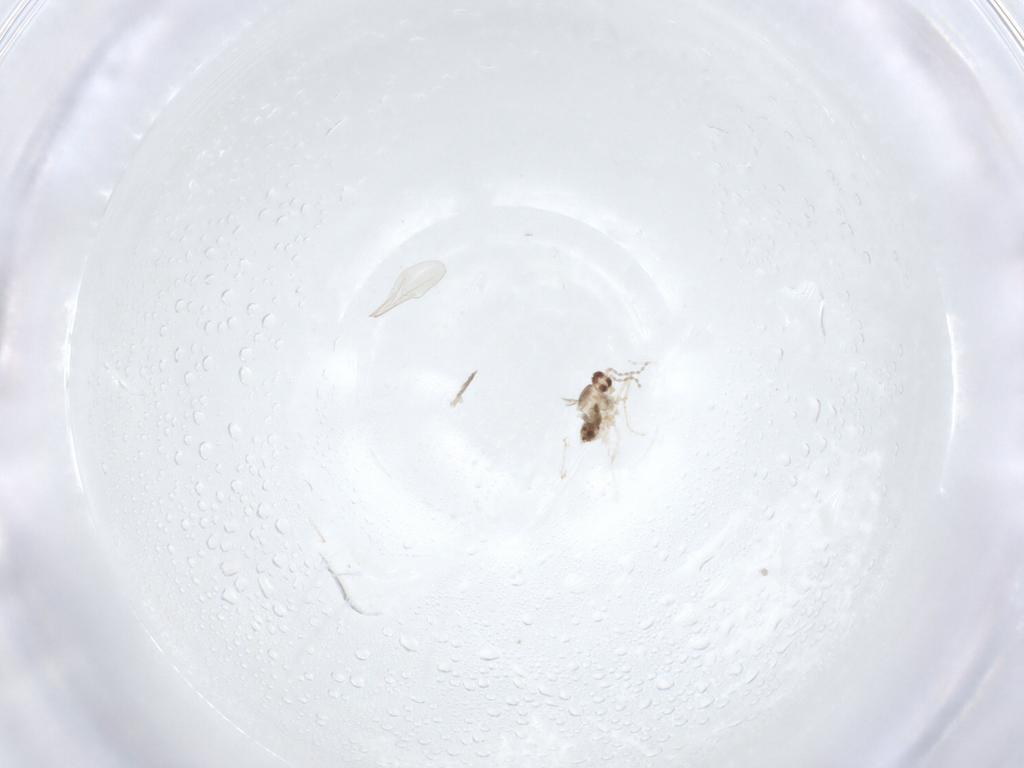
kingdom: Animalia
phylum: Arthropoda
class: Insecta
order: Diptera
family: Cecidomyiidae
